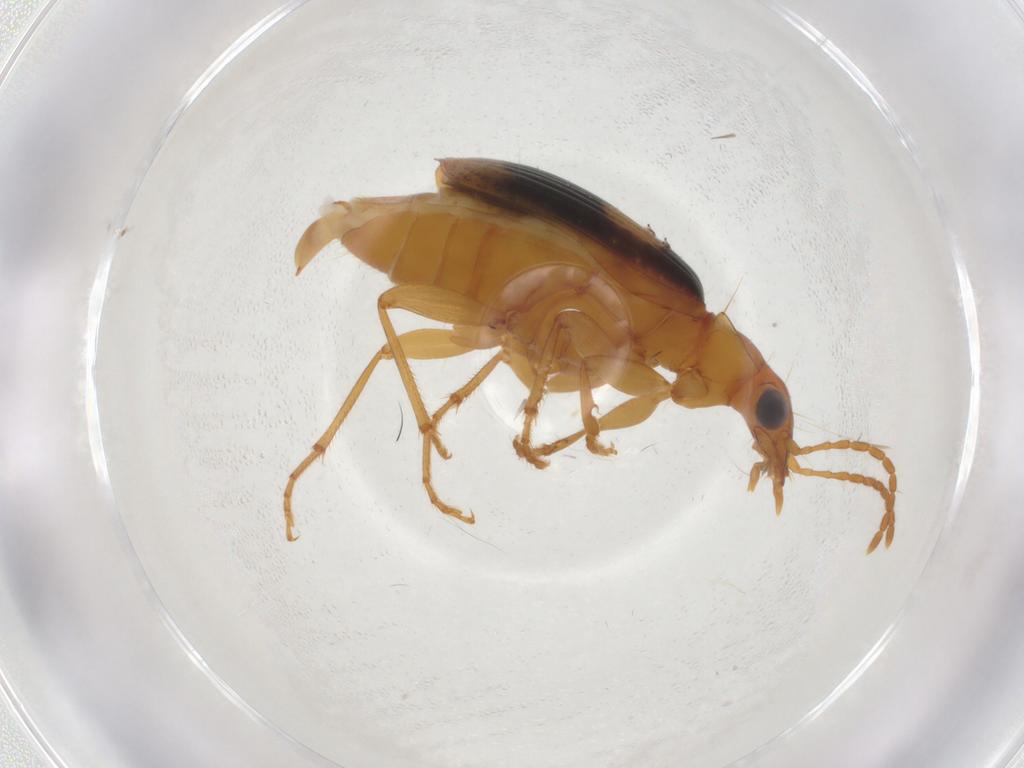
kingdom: Animalia
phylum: Arthropoda
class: Insecta
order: Coleoptera
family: Carabidae
